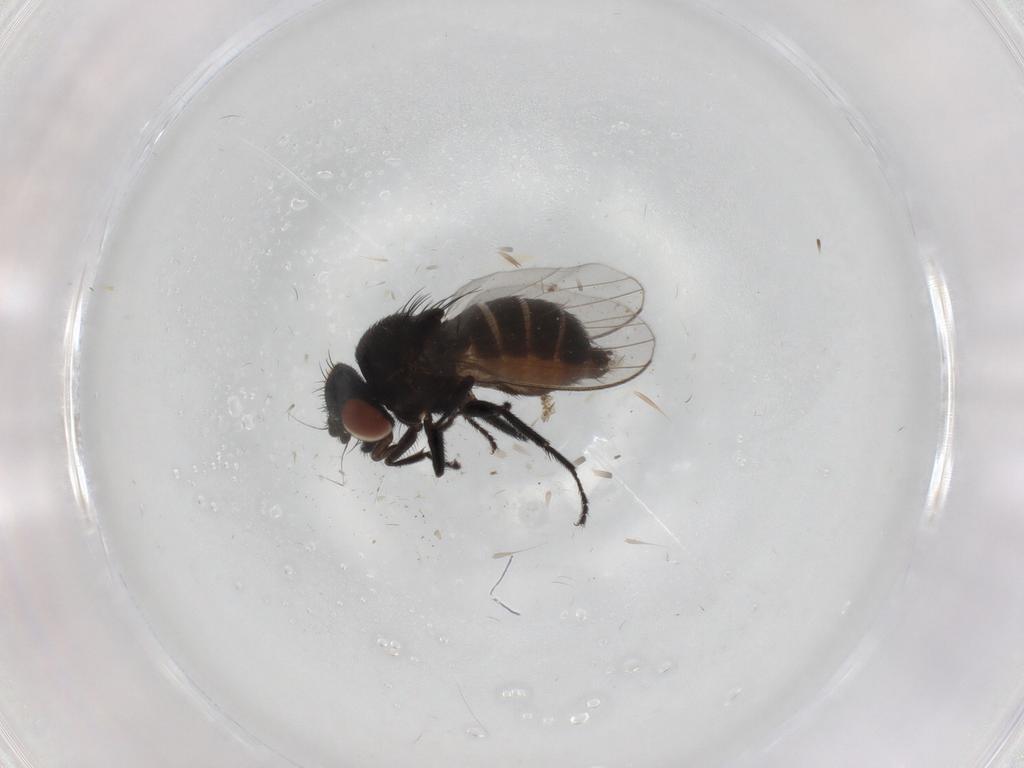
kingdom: Animalia
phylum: Arthropoda
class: Insecta
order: Diptera
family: Milichiidae
